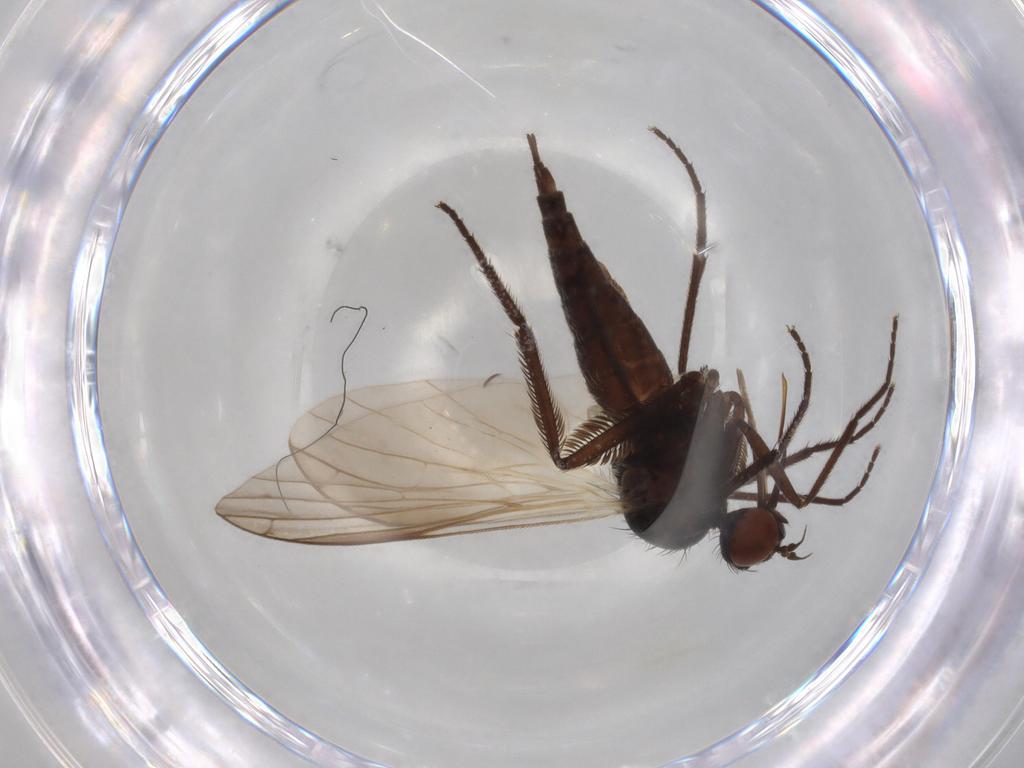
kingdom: Animalia
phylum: Arthropoda
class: Insecta
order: Diptera
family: Empididae
